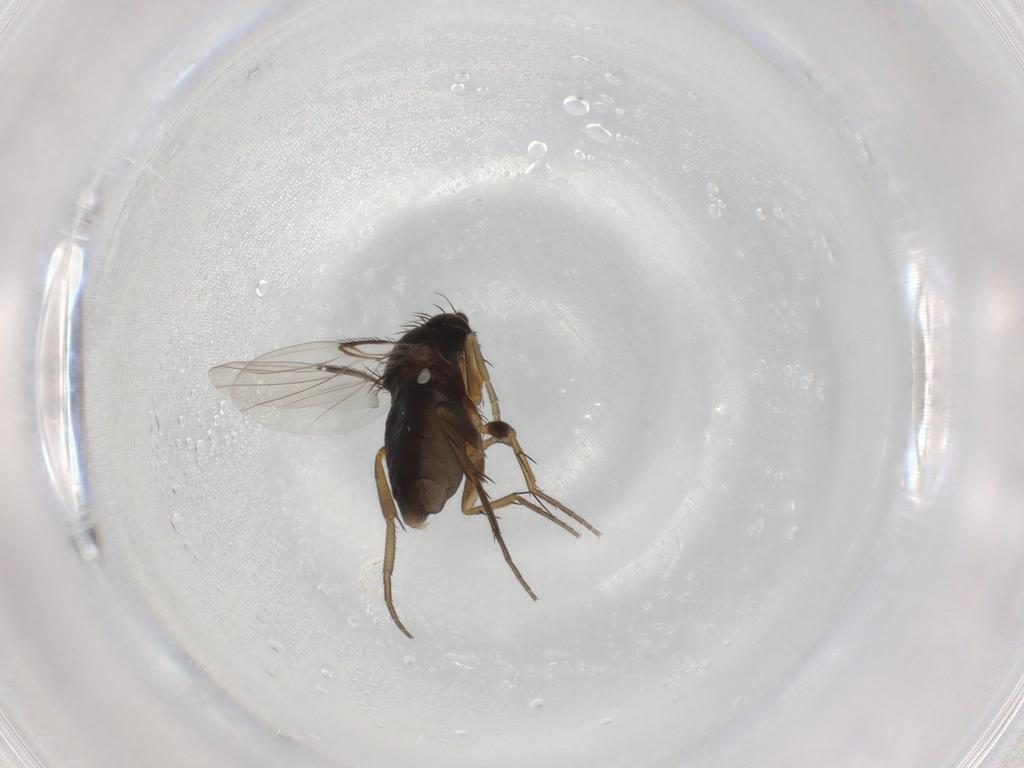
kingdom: Animalia
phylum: Arthropoda
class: Insecta
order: Diptera
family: Phoridae
